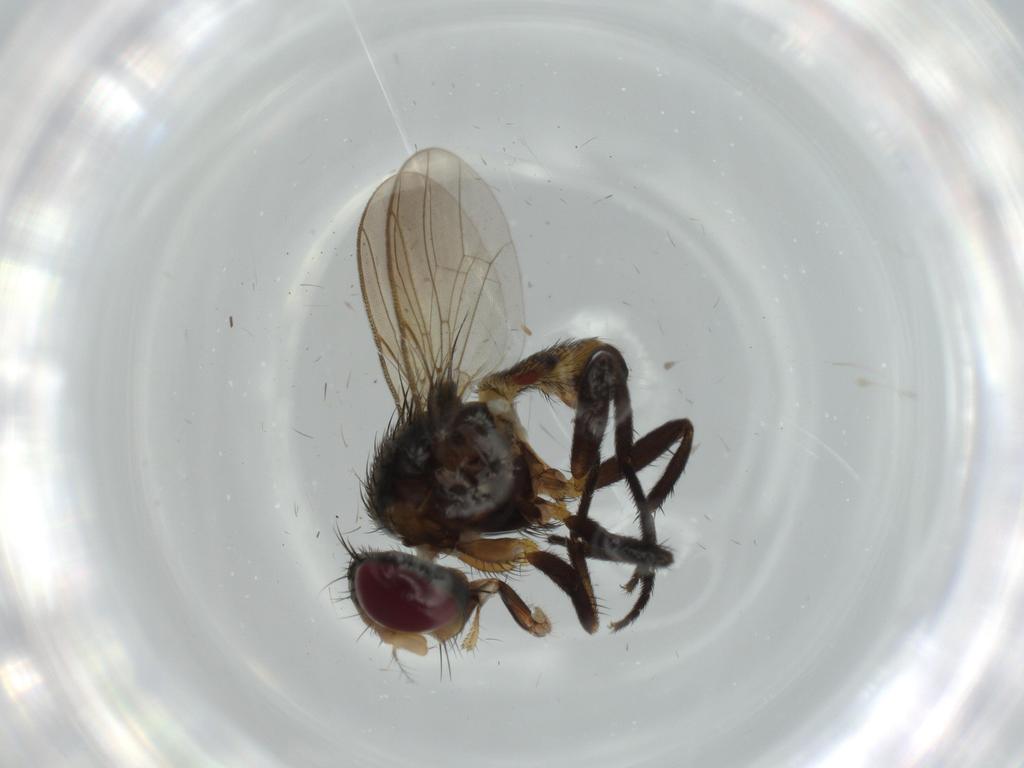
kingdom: Animalia
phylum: Arthropoda
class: Insecta
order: Diptera
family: Anthomyiidae
